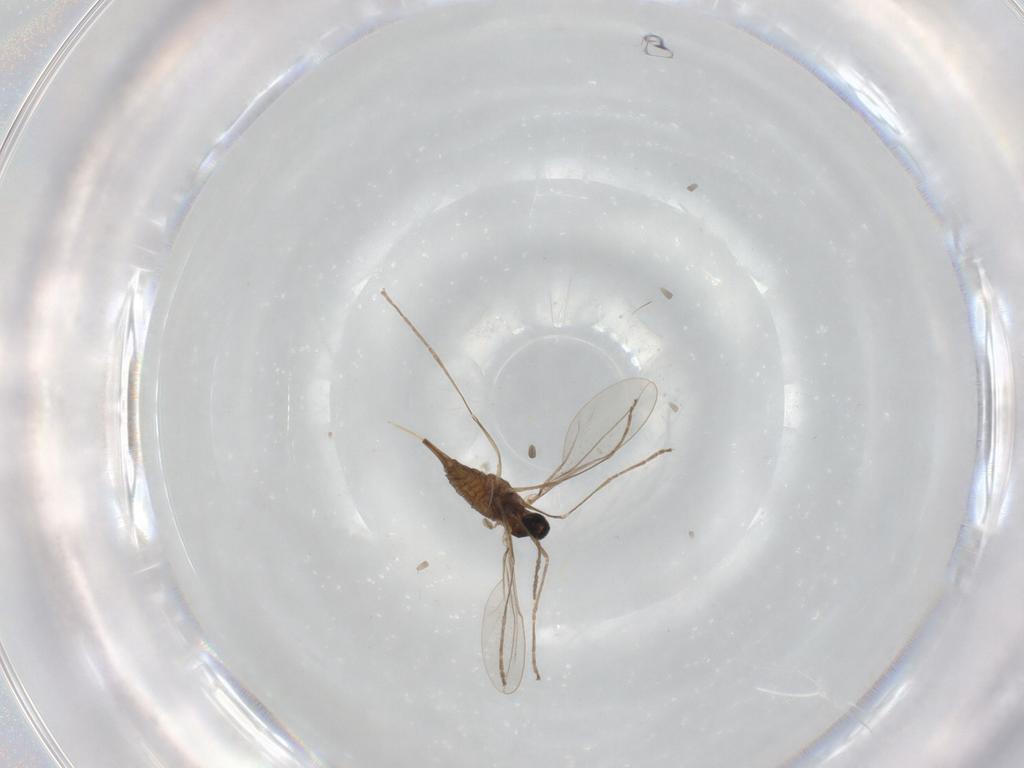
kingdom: Animalia
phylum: Arthropoda
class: Insecta
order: Diptera
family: Cecidomyiidae
